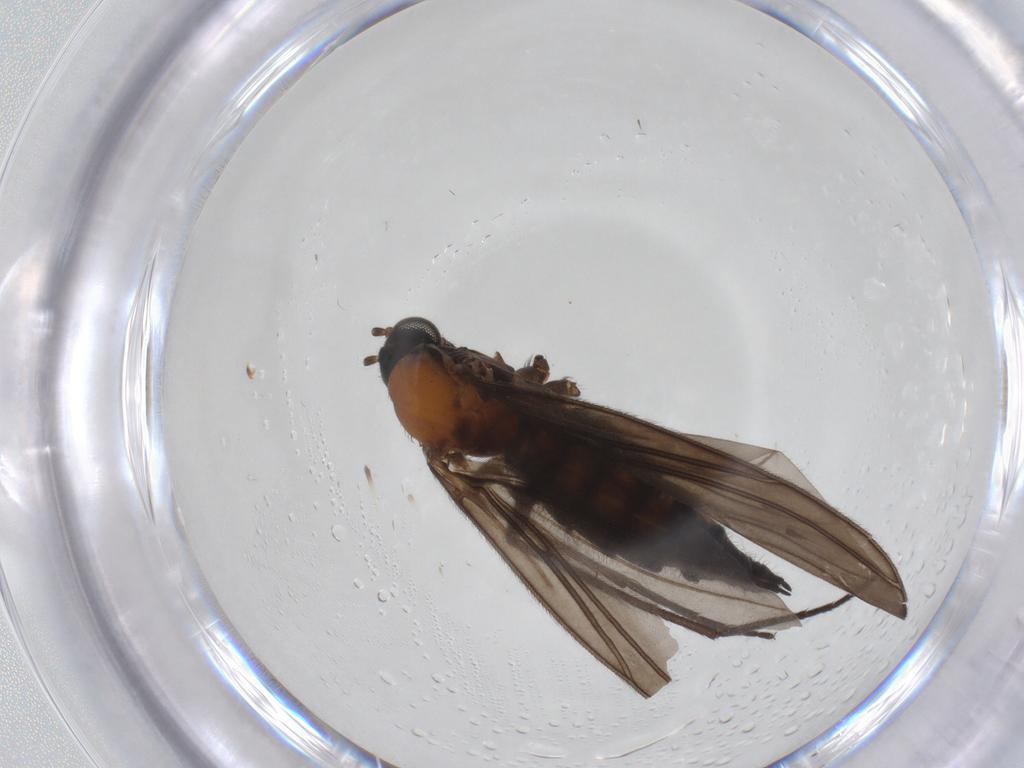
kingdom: Animalia
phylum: Arthropoda
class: Insecta
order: Diptera
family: Sciaridae
